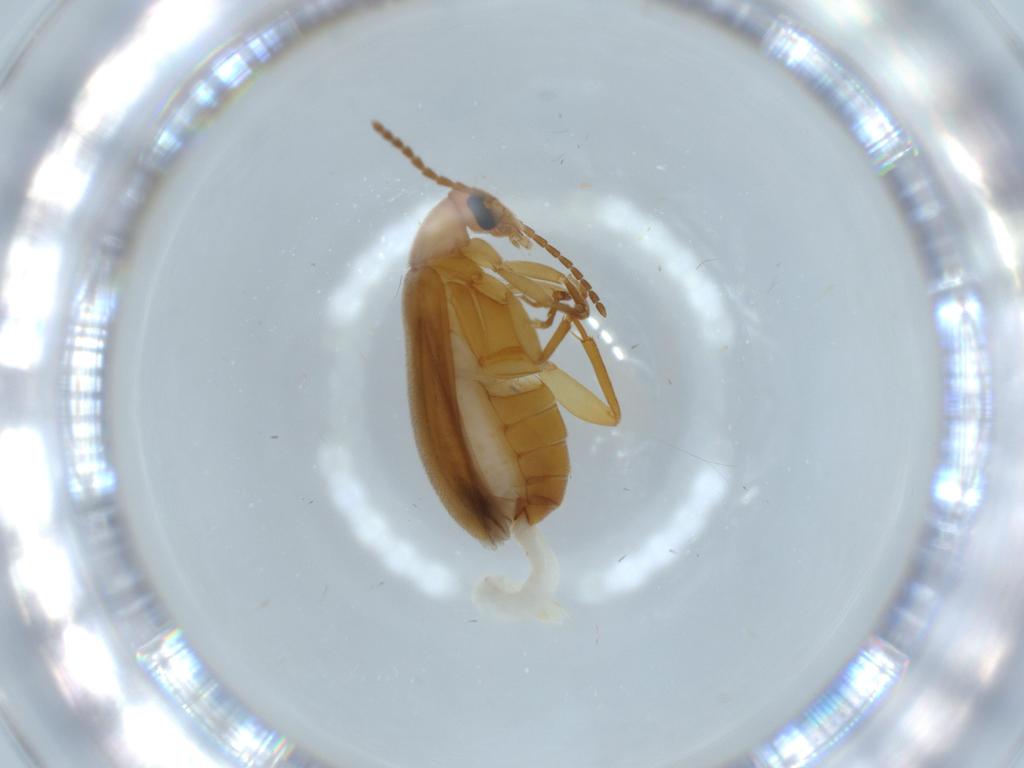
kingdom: Animalia
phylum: Arthropoda
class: Insecta
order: Coleoptera
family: Scraptiidae
